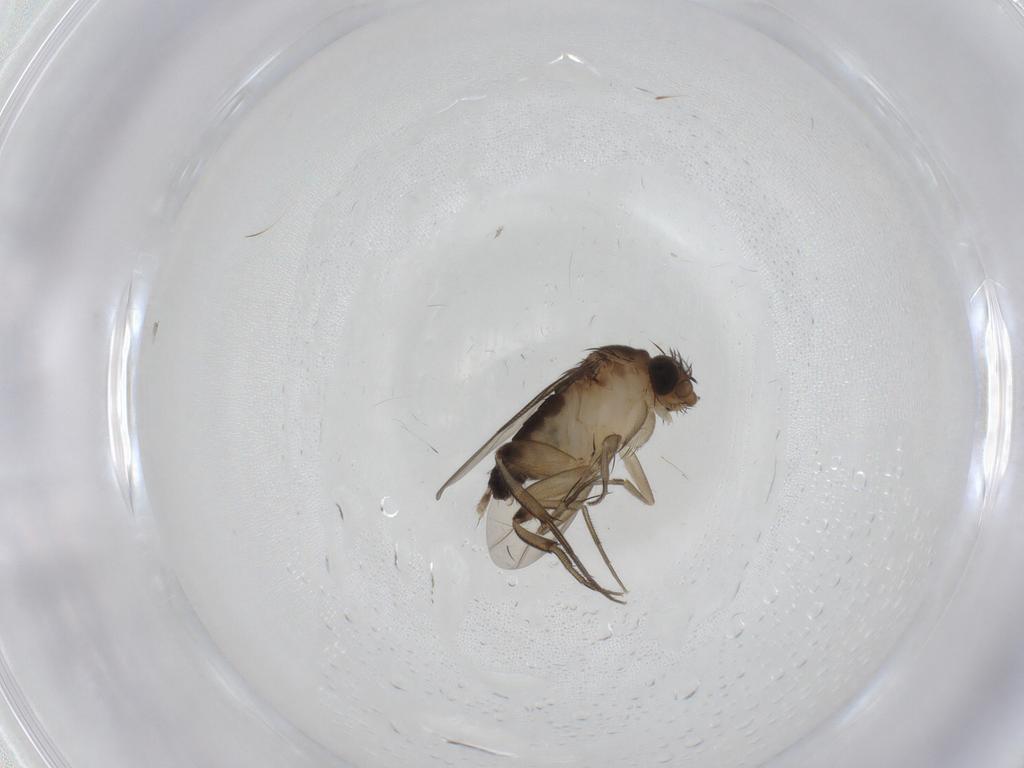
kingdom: Animalia
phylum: Arthropoda
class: Insecta
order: Diptera
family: Phoridae
